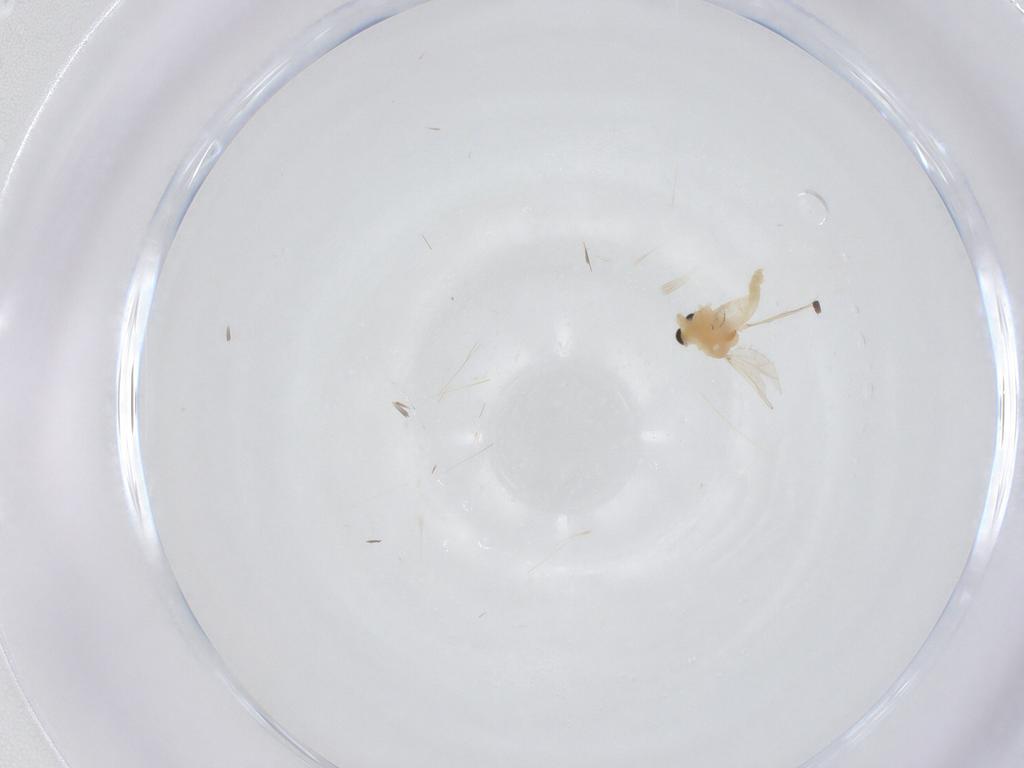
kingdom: Animalia
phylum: Arthropoda
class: Insecta
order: Diptera
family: Chironomidae
